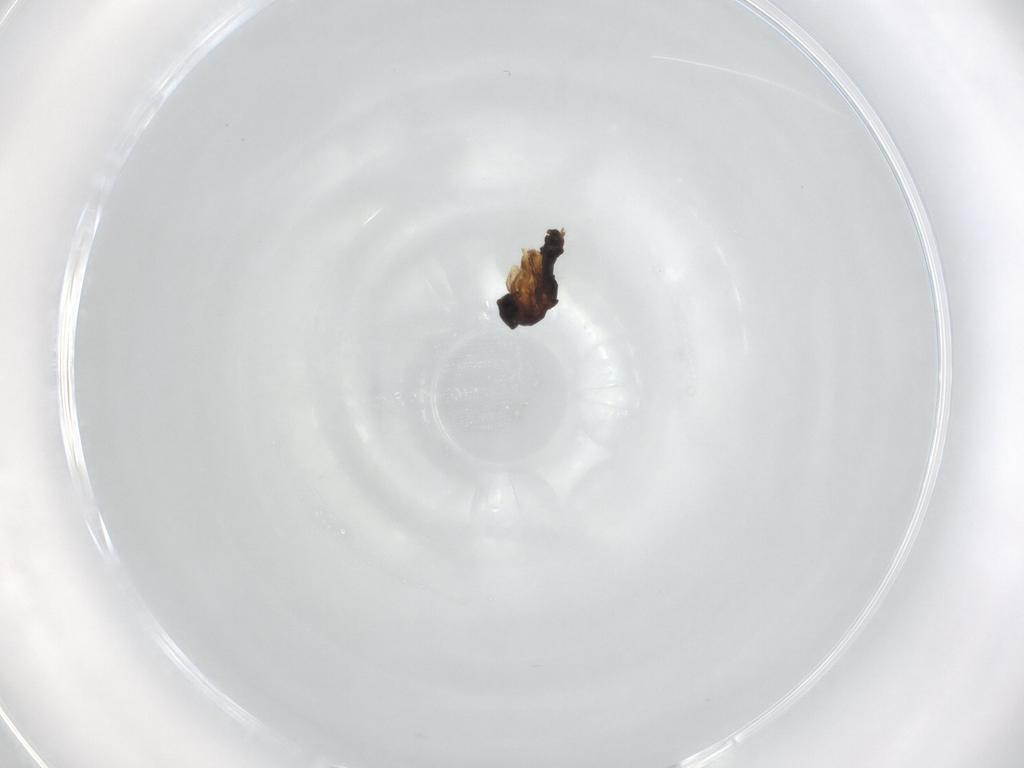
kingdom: Animalia
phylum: Arthropoda
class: Insecta
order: Diptera
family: Phoridae
